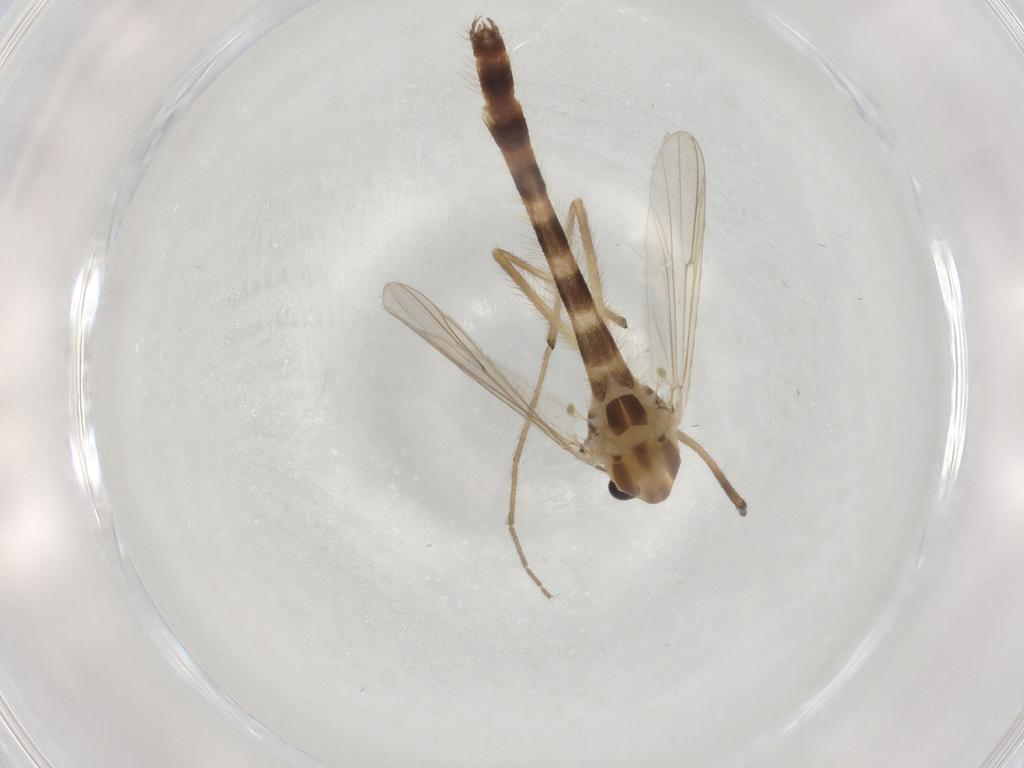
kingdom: Animalia
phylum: Arthropoda
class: Insecta
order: Diptera
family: Chironomidae
